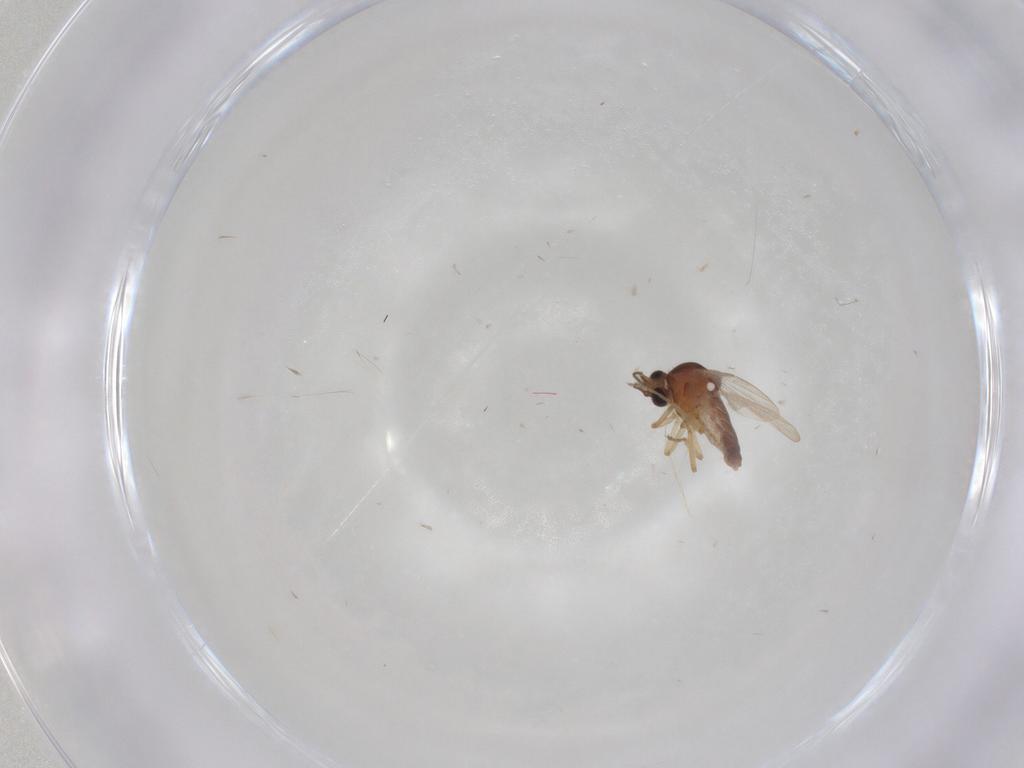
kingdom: Animalia
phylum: Arthropoda
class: Insecta
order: Diptera
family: Ceratopogonidae
